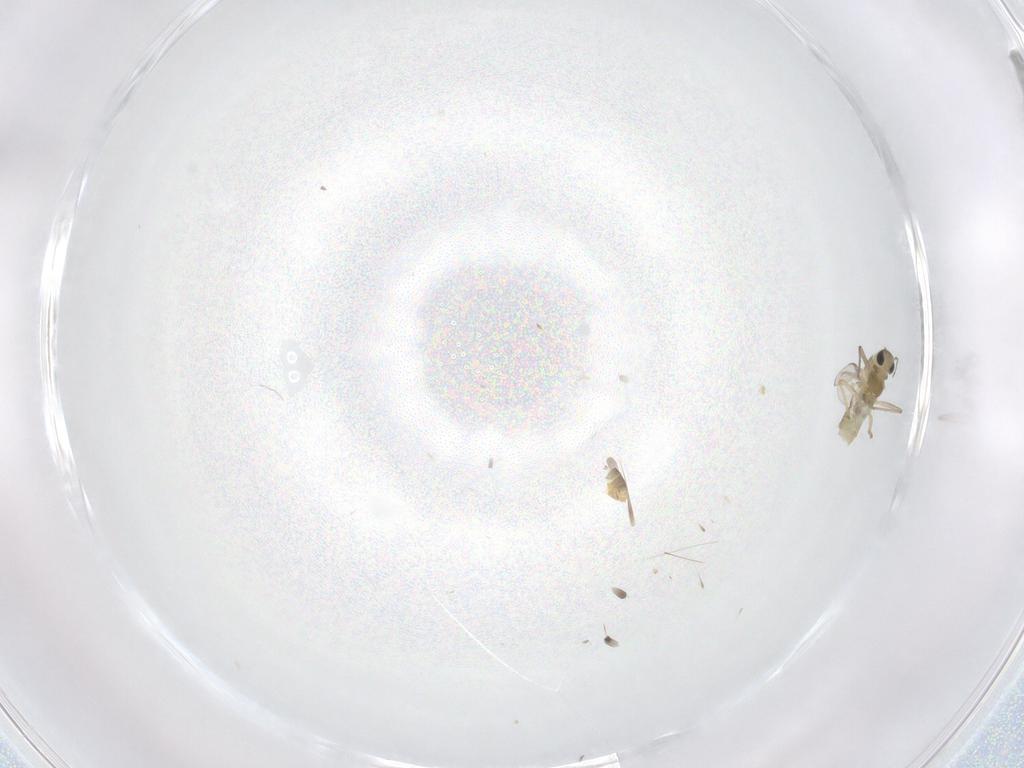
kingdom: Animalia
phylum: Arthropoda
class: Insecta
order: Diptera
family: Chironomidae
